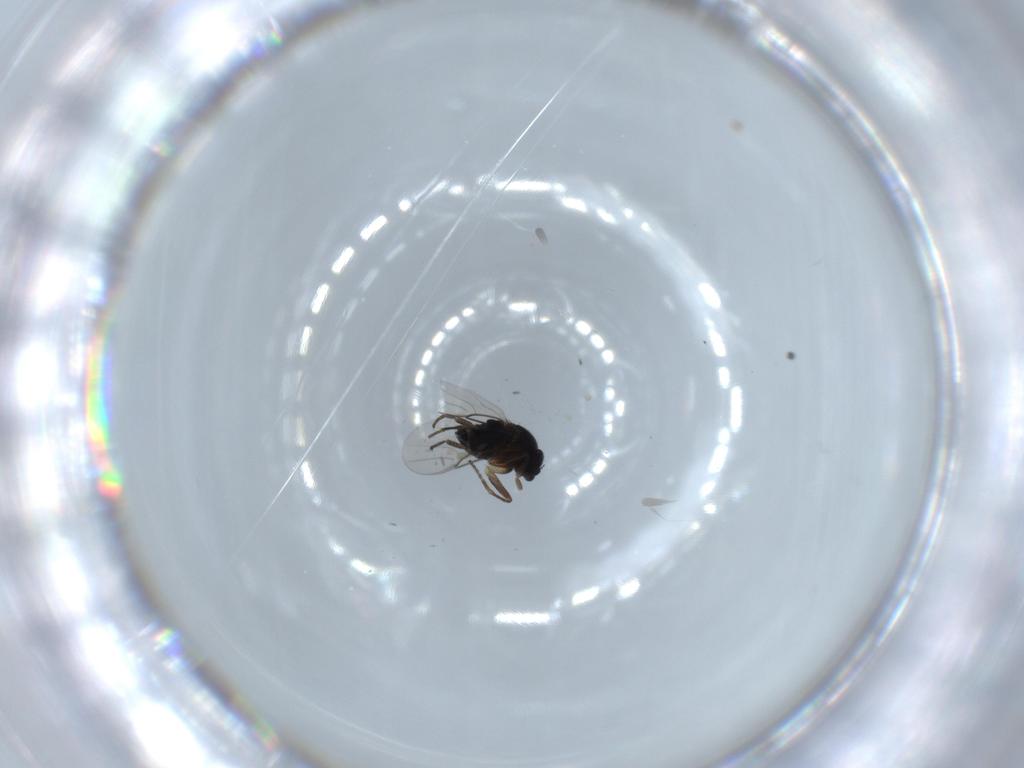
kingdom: Animalia
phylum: Arthropoda
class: Insecta
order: Diptera
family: Phoridae
